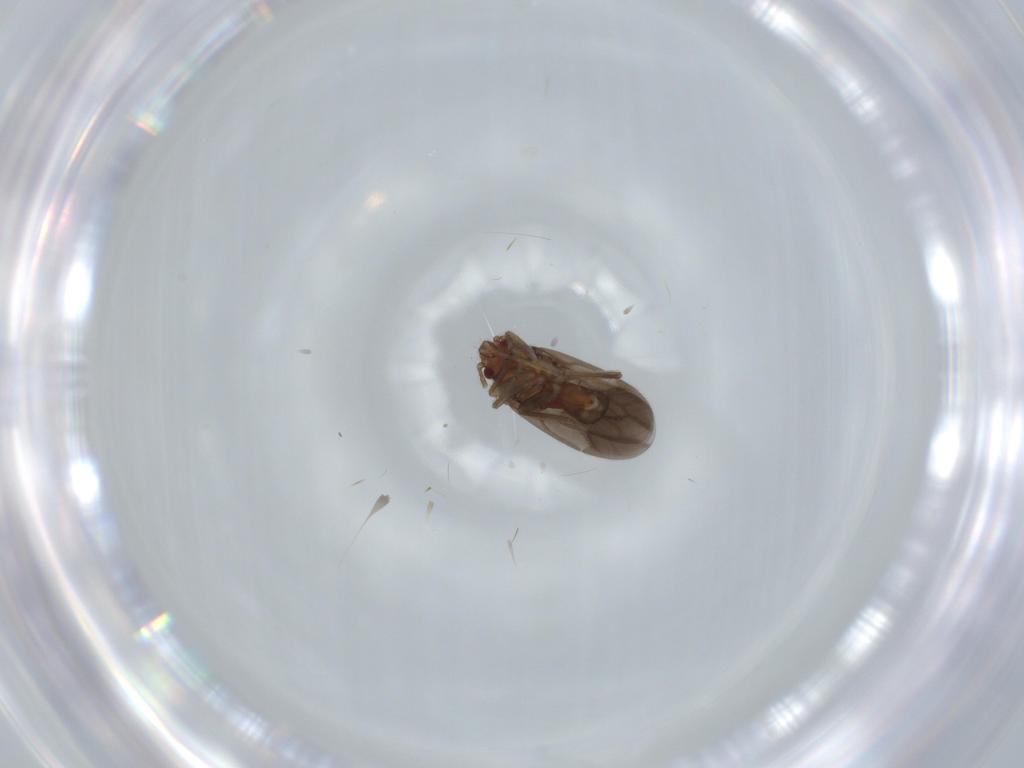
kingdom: Animalia
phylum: Arthropoda
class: Insecta
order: Hemiptera
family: Ceratocombidae
